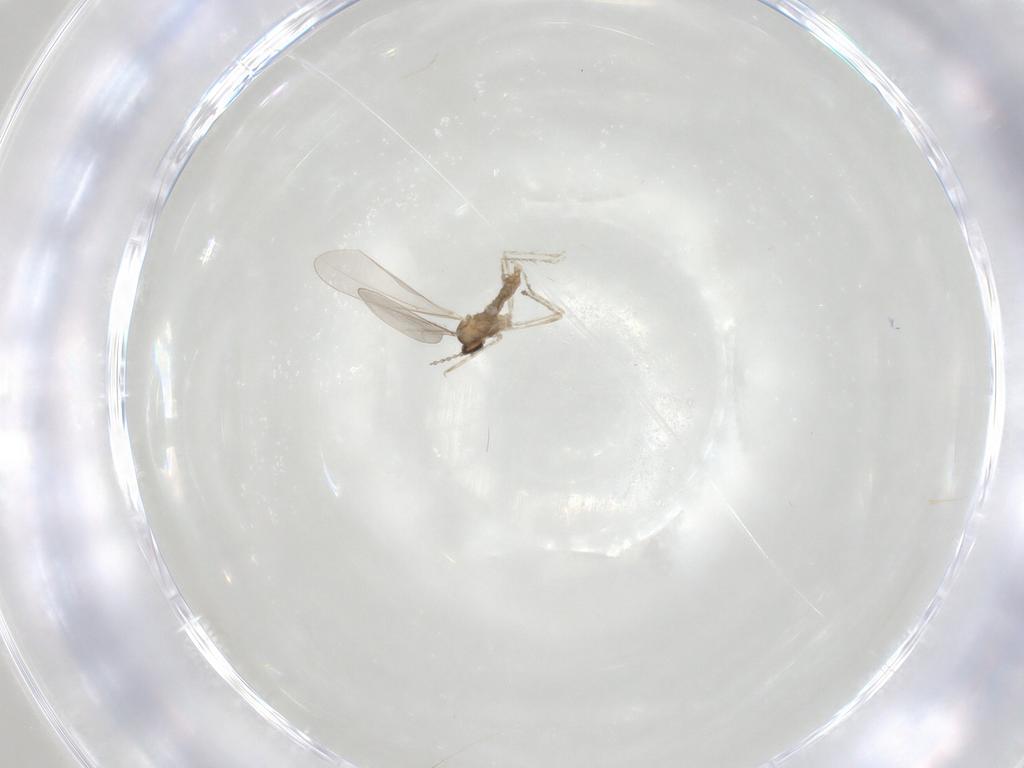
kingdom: Animalia
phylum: Arthropoda
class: Insecta
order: Diptera
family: Cecidomyiidae
